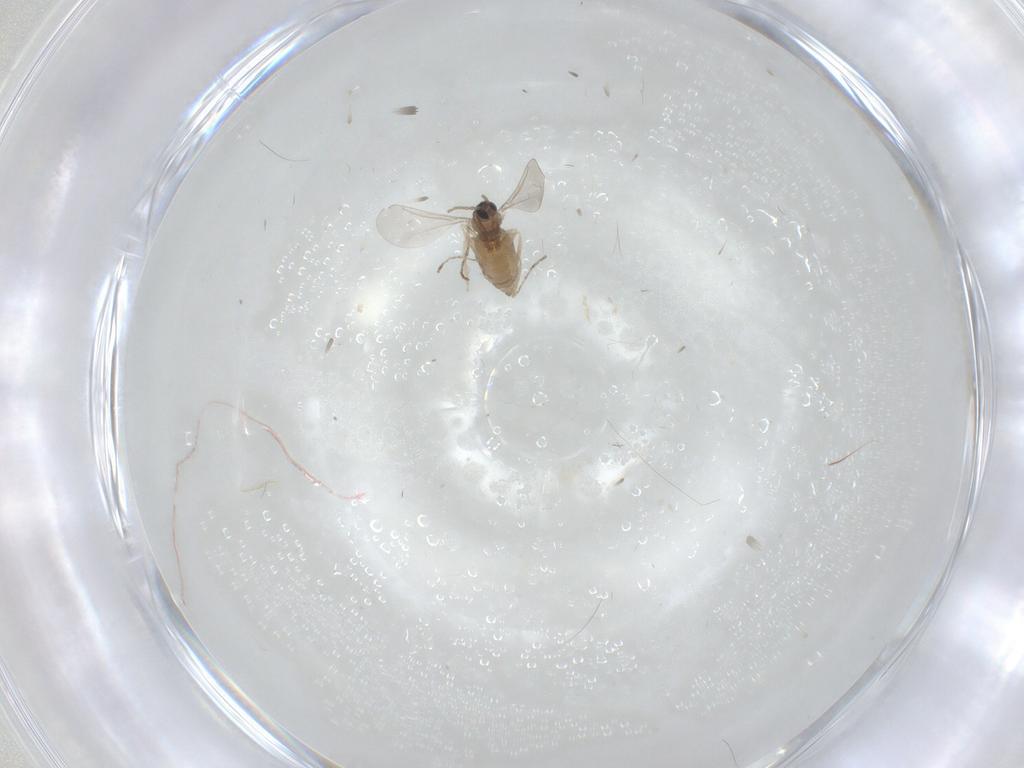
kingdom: Animalia
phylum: Arthropoda
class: Insecta
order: Diptera
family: Cecidomyiidae
